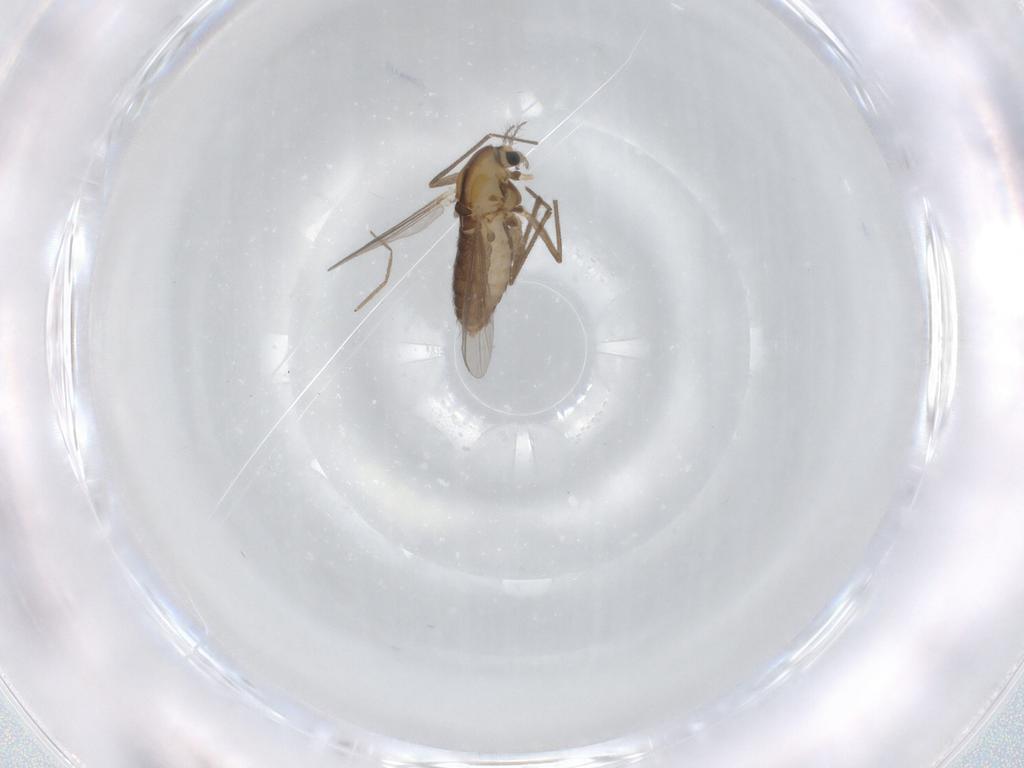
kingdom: Animalia
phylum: Arthropoda
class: Insecta
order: Diptera
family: Chironomidae
